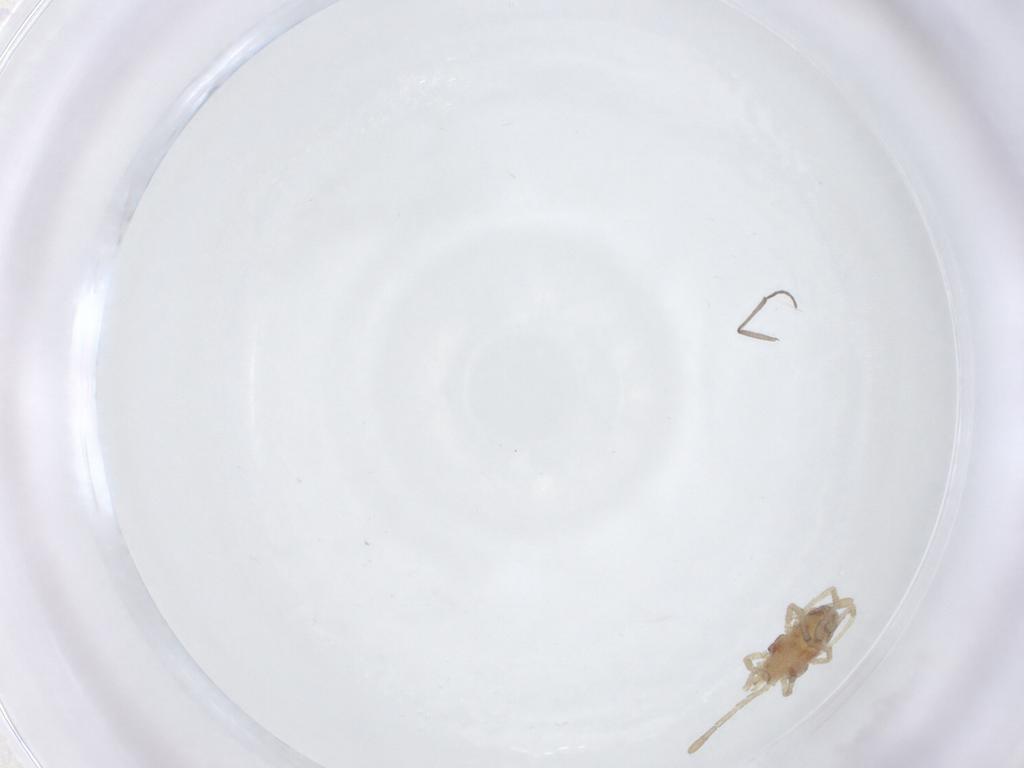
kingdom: Animalia
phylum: Arthropoda
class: Arachnida
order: Trombidiformes
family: Smarididae
